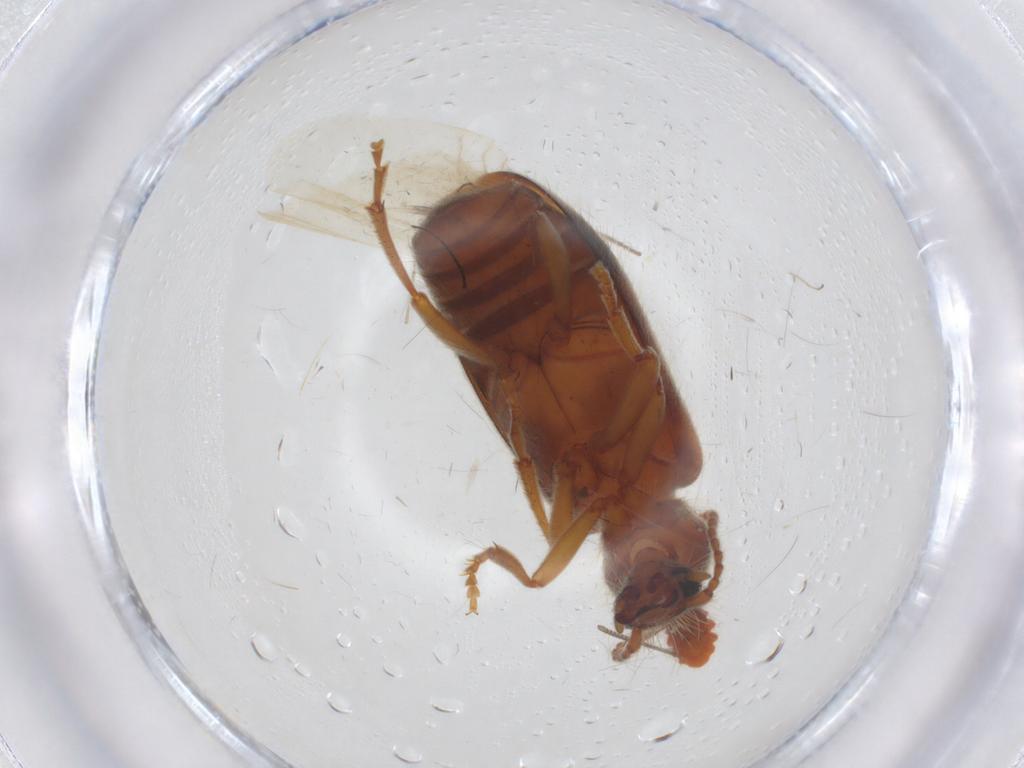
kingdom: Animalia
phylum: Arthropoda
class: Insecta
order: Coleoptera
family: Anthicidae
